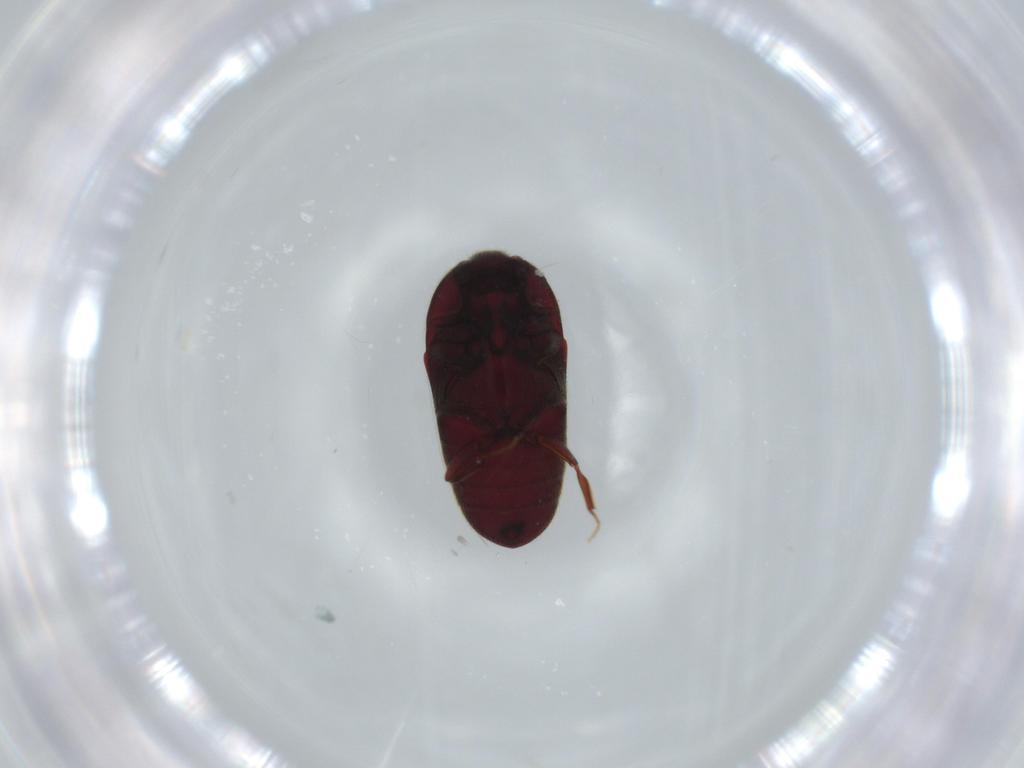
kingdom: Animalia
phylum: Arthropoda
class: Insecta
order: Coleoptera
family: Throscidae
